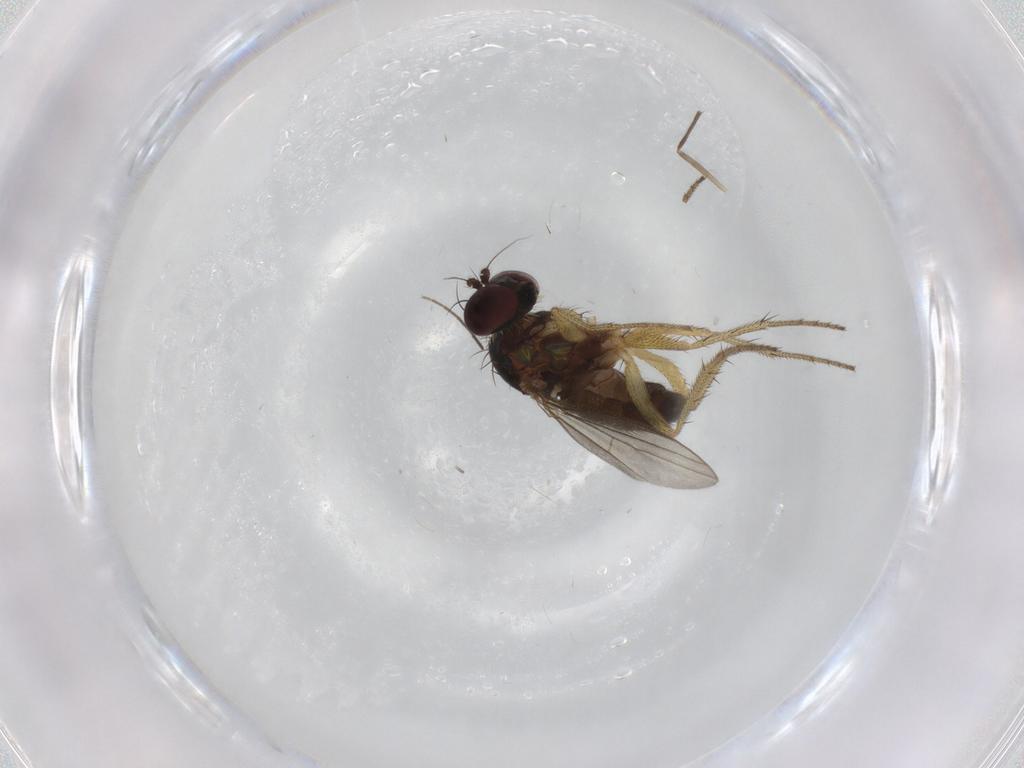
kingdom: Animalia
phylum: Arthropoda
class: Insecta
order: Diptera
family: Dolichopodidae
